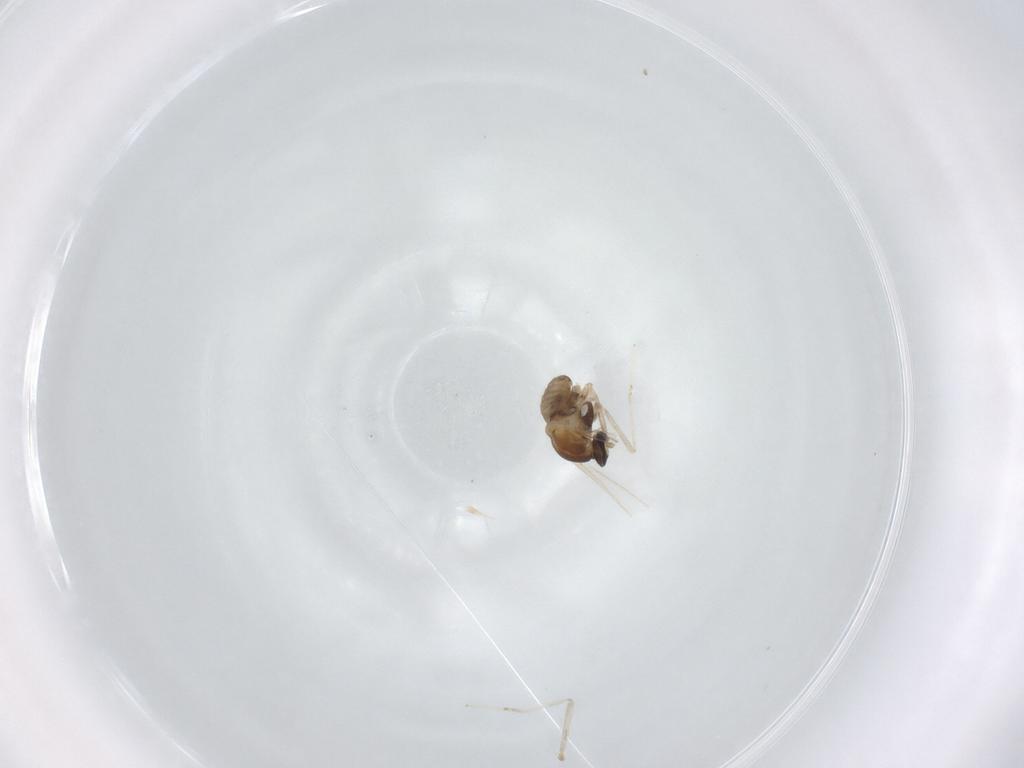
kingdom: Animalia
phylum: Arthropoda
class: Insecta
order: Diptera
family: Cecidomyiidae
